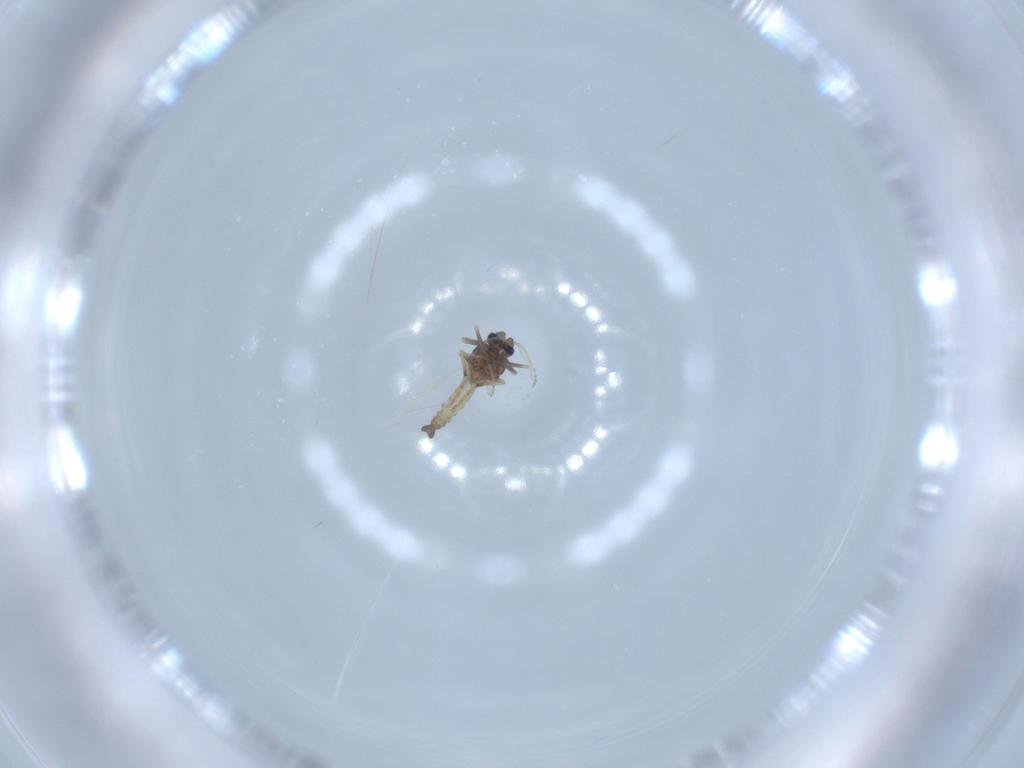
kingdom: Animalia
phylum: Arthropoda
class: Insecta
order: Diptera
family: Ceratopogonidae
